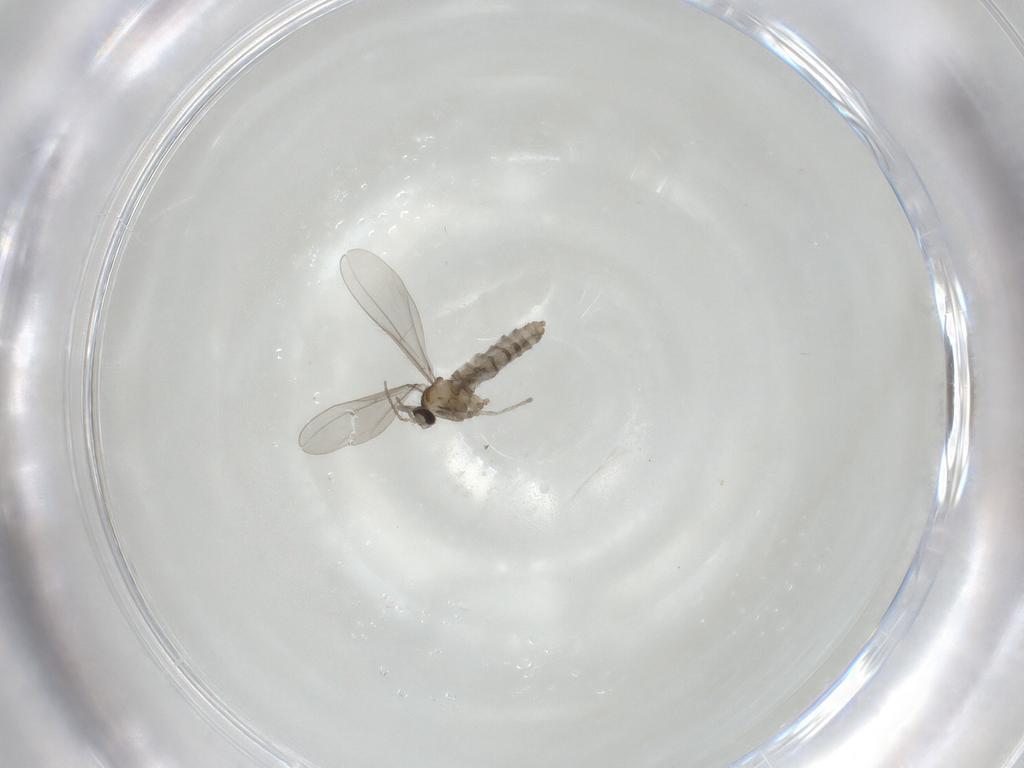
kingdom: Animalia
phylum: Arthropoda
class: Insecta
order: Diptera
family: Cecidomyiidae
